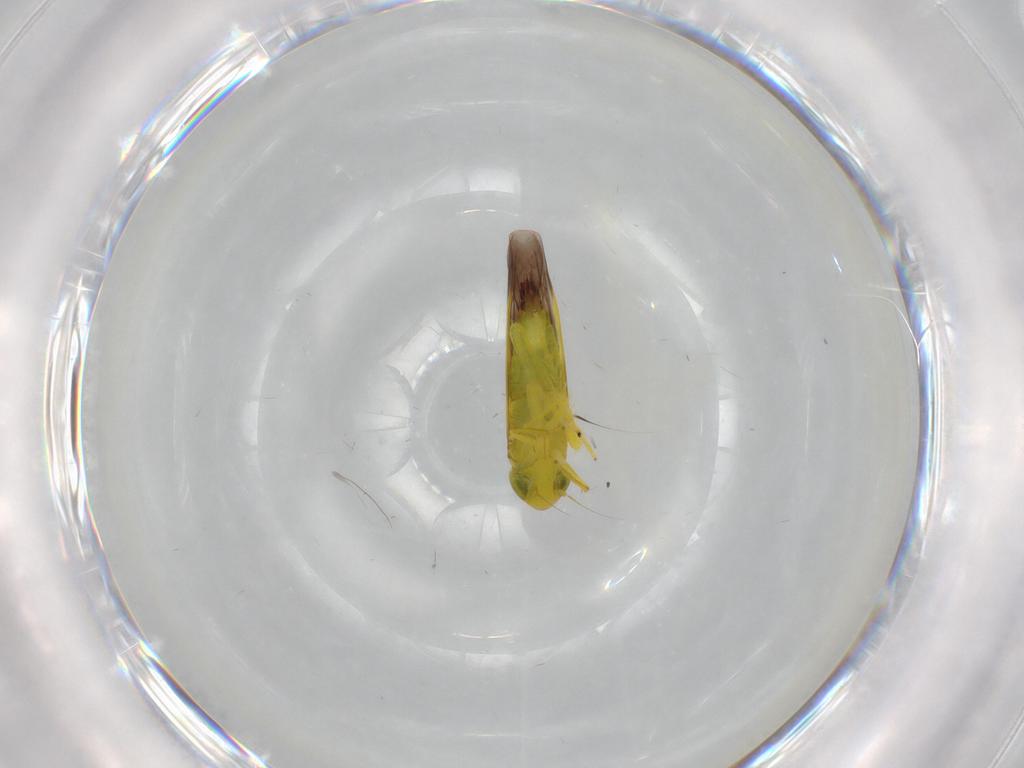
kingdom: Animalia
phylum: Arthropoda
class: Insecta
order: Hemiptera
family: Cicadellidae
